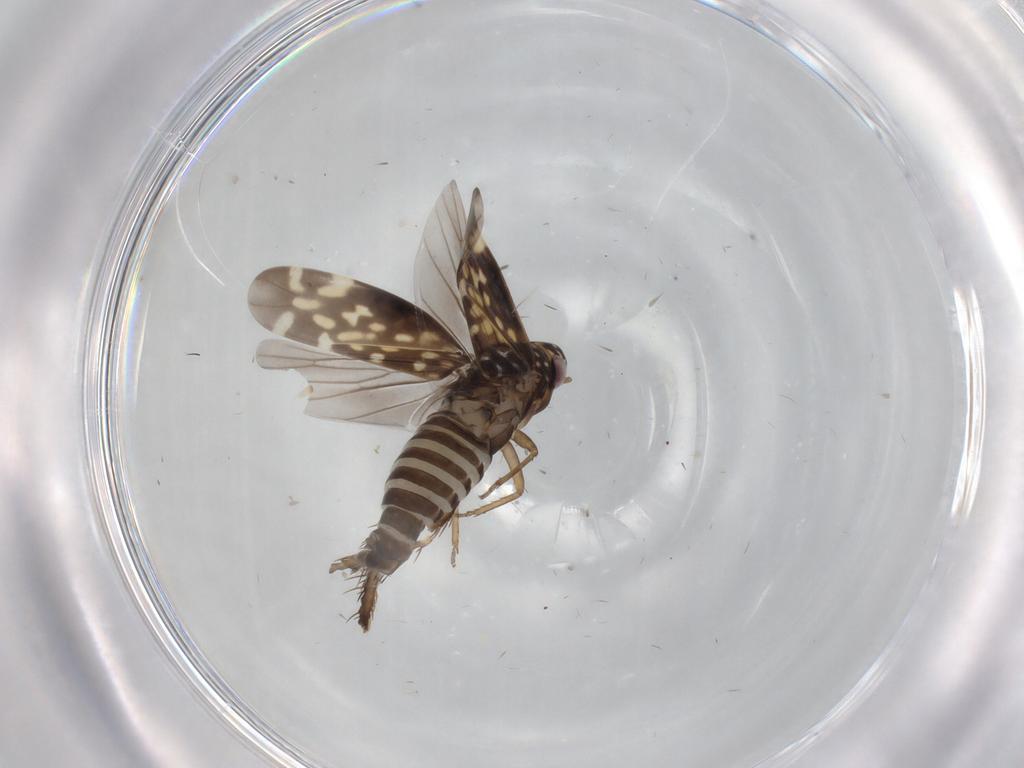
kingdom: Animalia
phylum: Arthropoda
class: Insecta
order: Hemiptera
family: Cicadellidae
